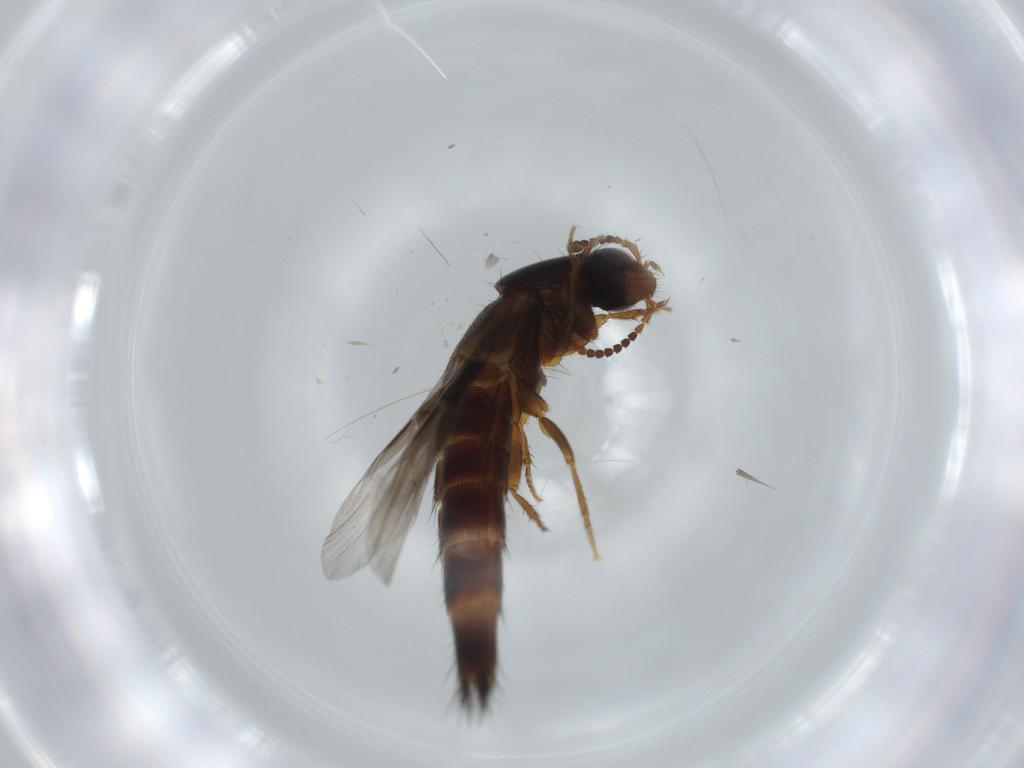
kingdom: Animalia
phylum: Arthropoda
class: Insecta
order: Coleoptera
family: Staphylinidae
